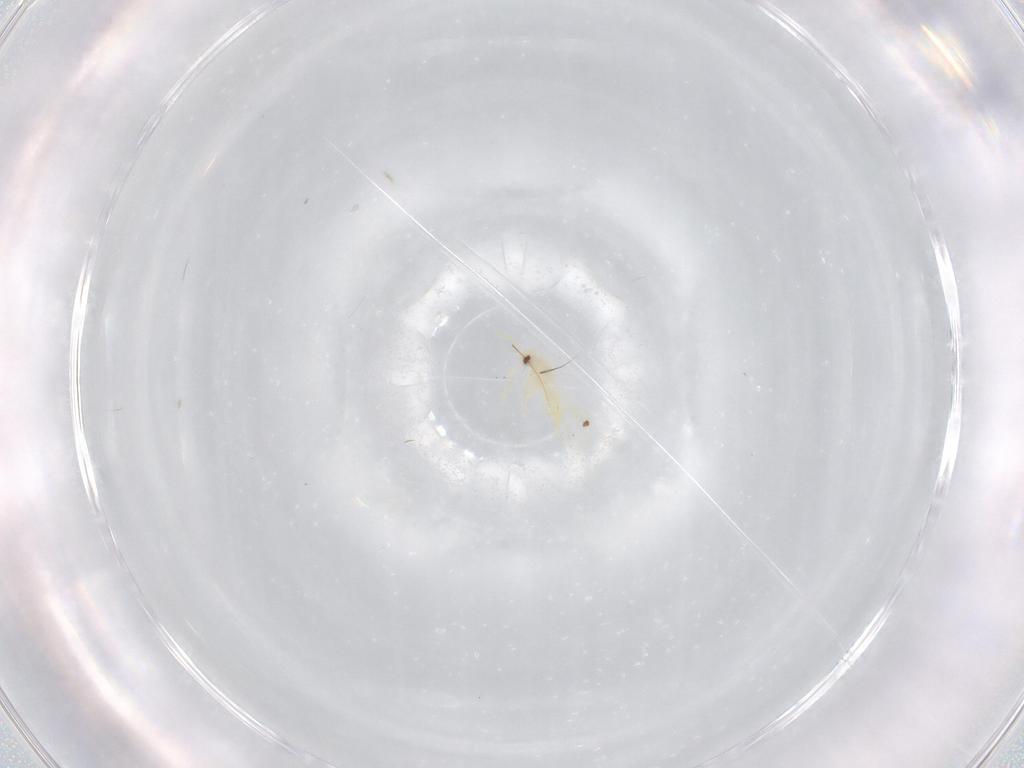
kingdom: Animalia
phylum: Arthropoda
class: Insecta
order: Hemiptera
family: Aleyrodidae
